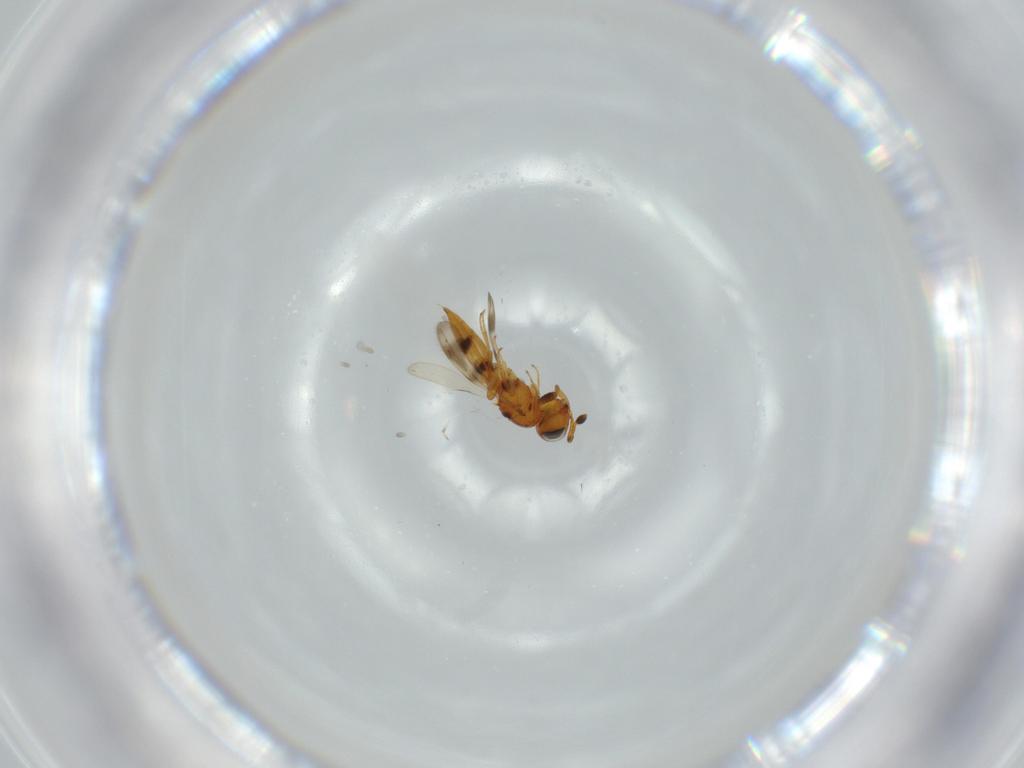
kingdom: Animalia
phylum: Arthropoda
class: Insecta
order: Hymenoptera
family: Scelionidae
